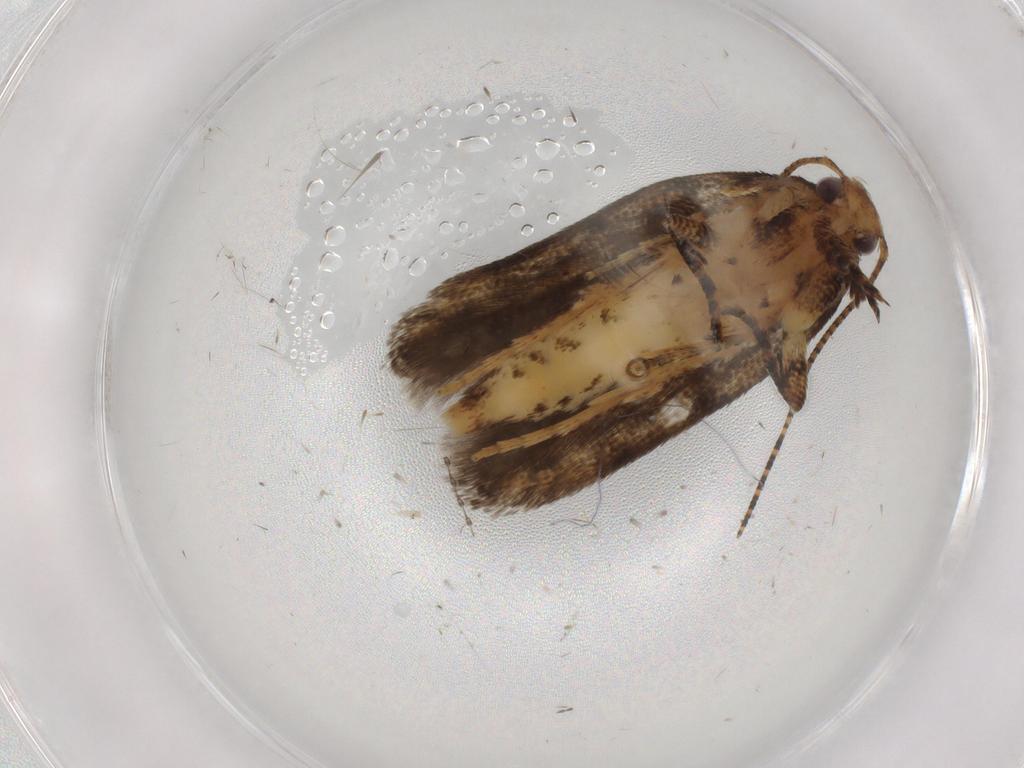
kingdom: Animalia
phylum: Arthropoda
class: Insecta
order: Lepidoptera
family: Gelechiidae
